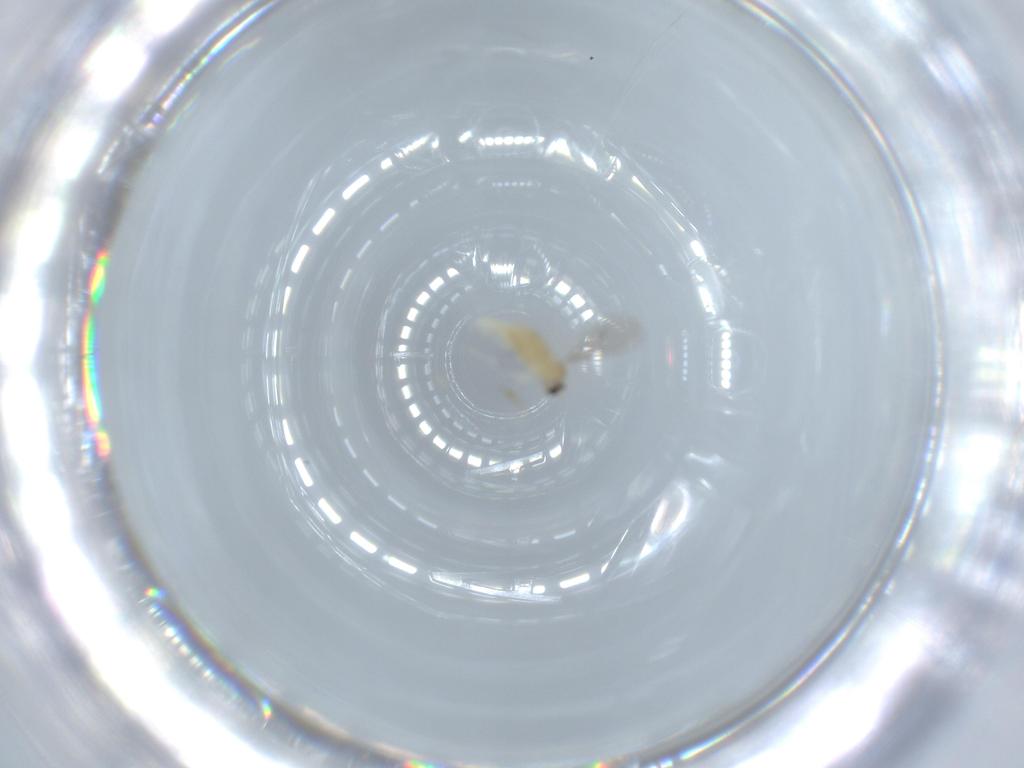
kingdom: Animalia
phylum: Arthropoda
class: Insecta
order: Diptera
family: Cecidomyiidae
